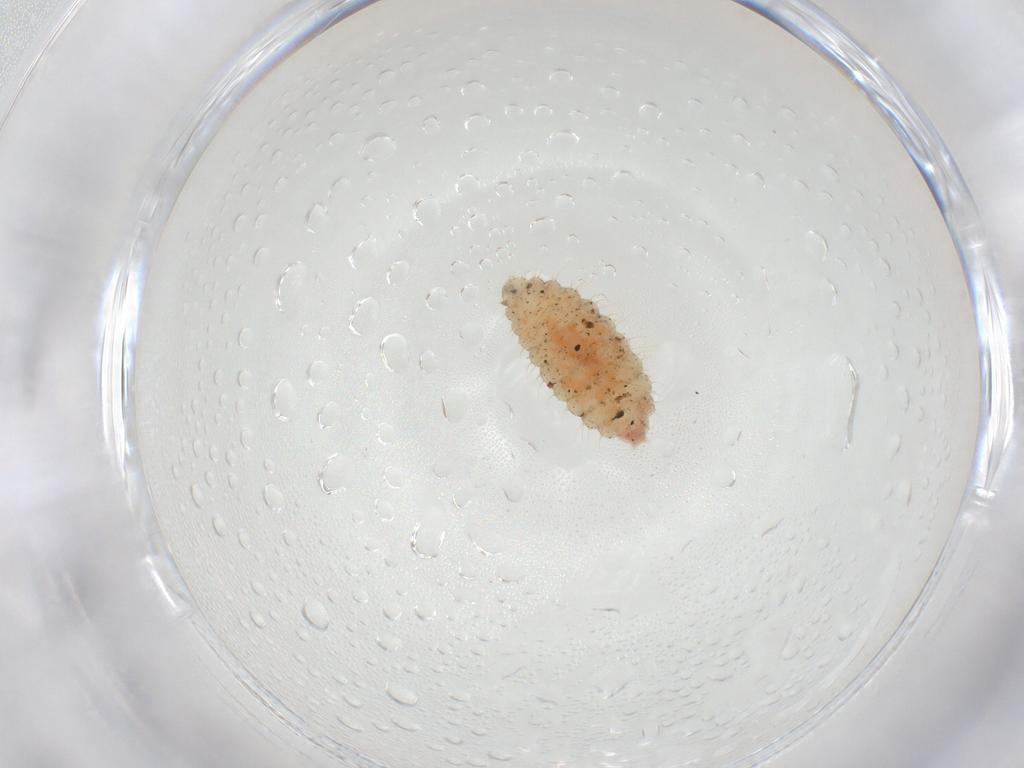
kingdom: Animalia
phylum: Arthropoda
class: Insecta
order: Diptera
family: Cecidomyiidae
